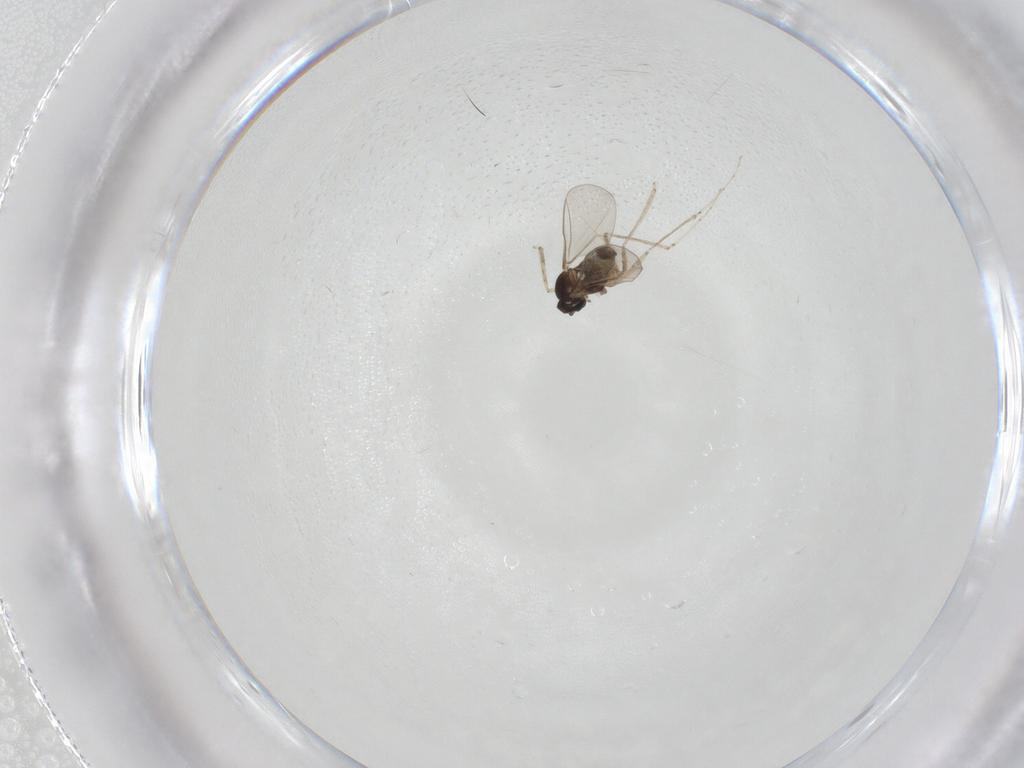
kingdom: Animalia
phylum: Arthropoda
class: Insecta
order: Diptera
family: Cecidomyiidae
